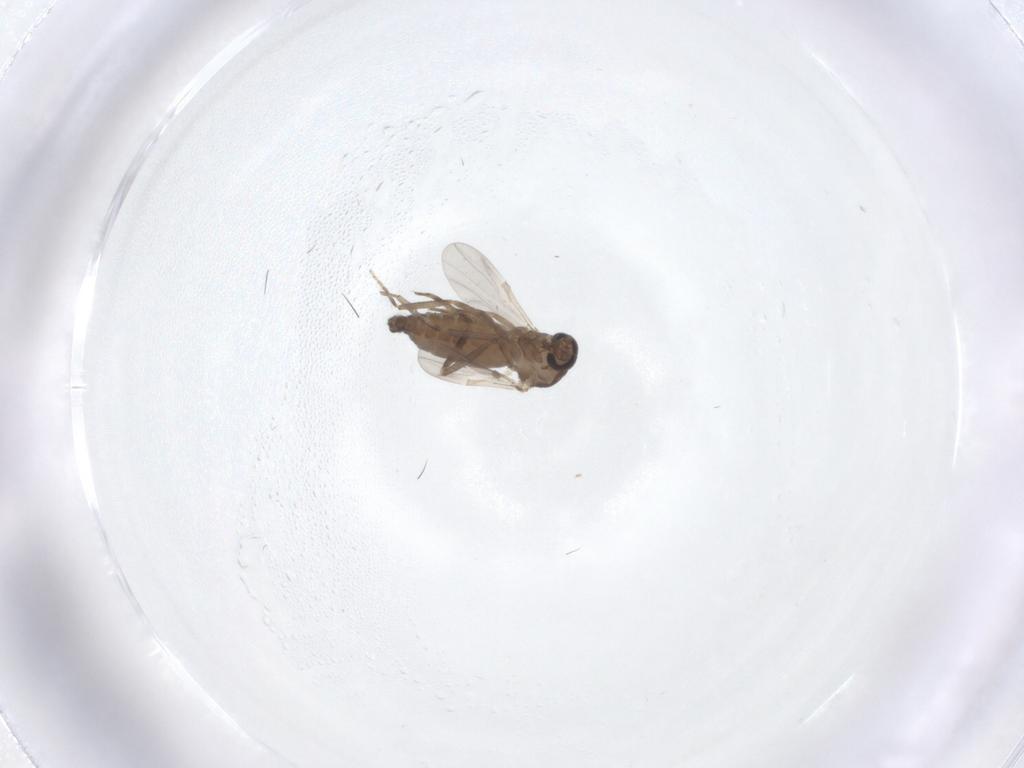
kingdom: Animalia
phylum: Arthropoda
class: Insecta
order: Diptera
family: Ceratopogonidae
